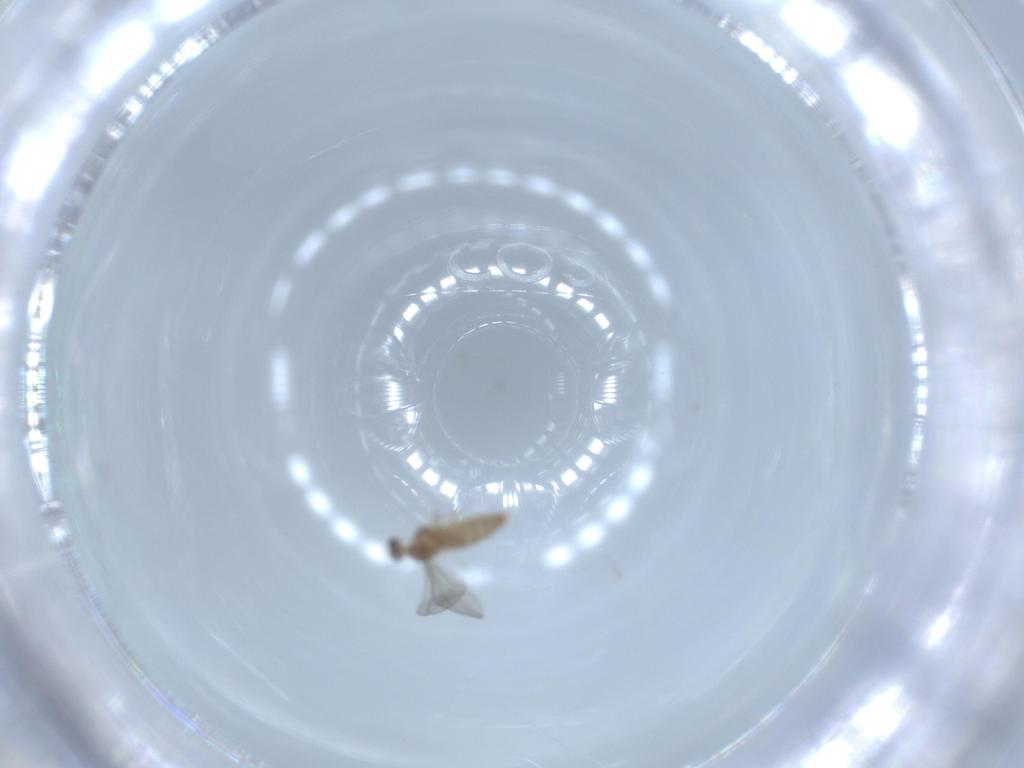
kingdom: Animalia
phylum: Arthropoda
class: Insecta
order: Diptera
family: Cecidomyiidae
